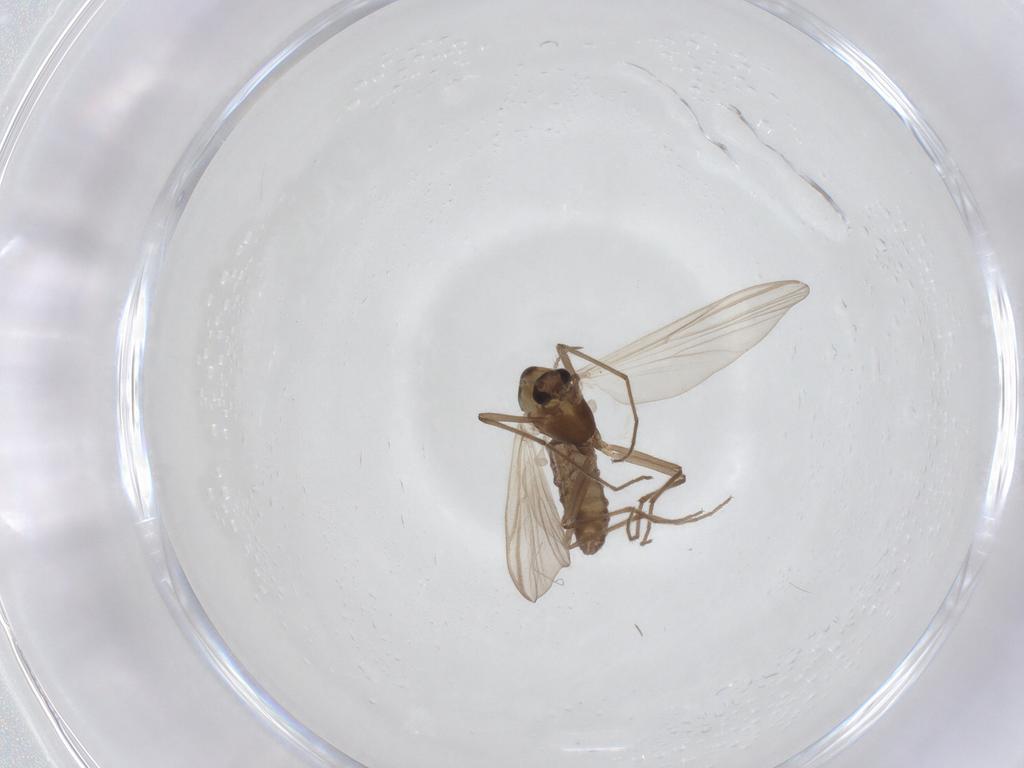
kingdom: Animalia
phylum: Arthropoda
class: Insecta
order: Diptera
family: Chironomidae
